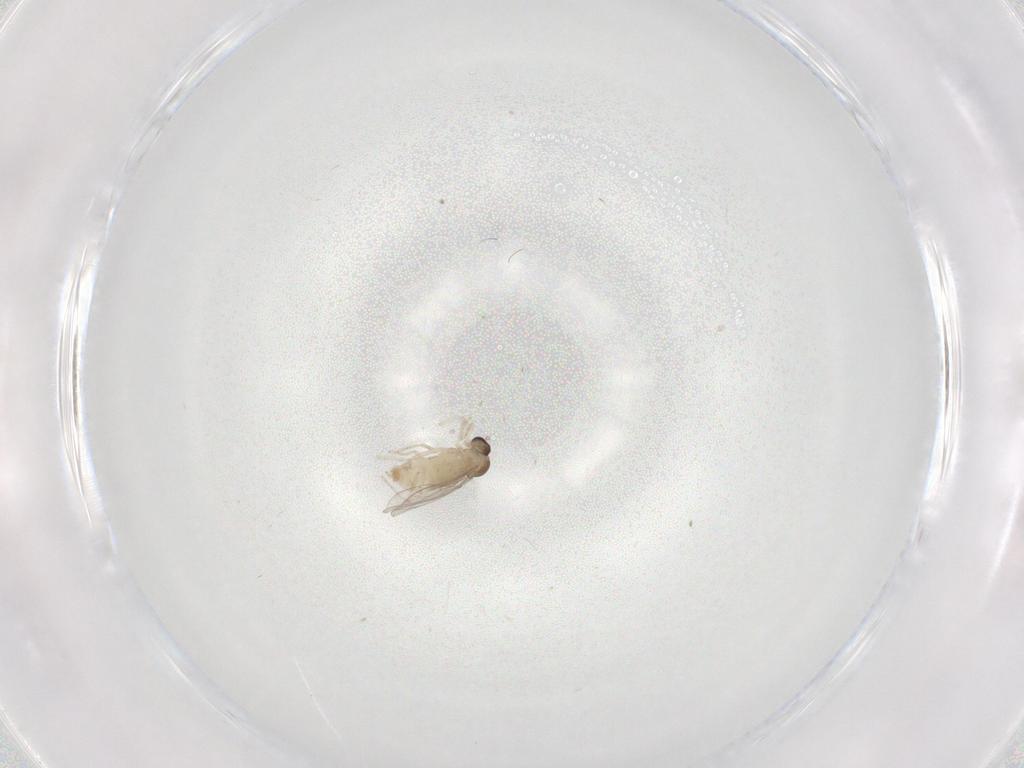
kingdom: Animalia
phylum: Arthropoda
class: Insecta
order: Diptera
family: Cecidomyiidae
